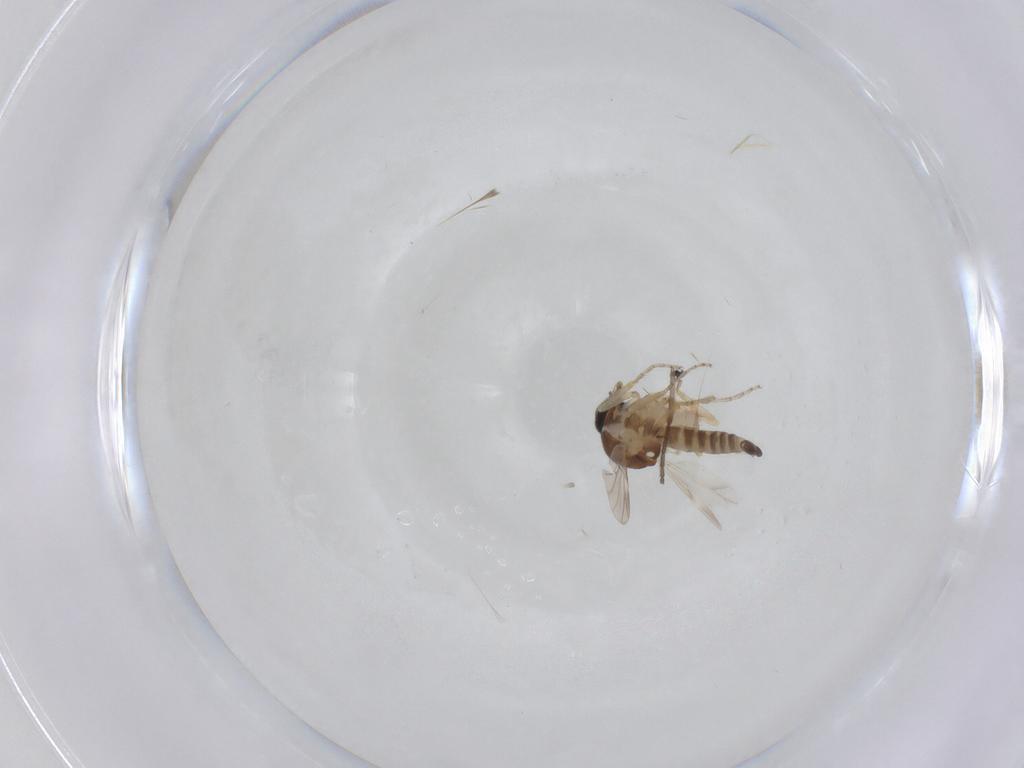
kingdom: Animalia
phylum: Arthropoda
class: Insecta
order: Diptera
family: Ceratopogonidae
